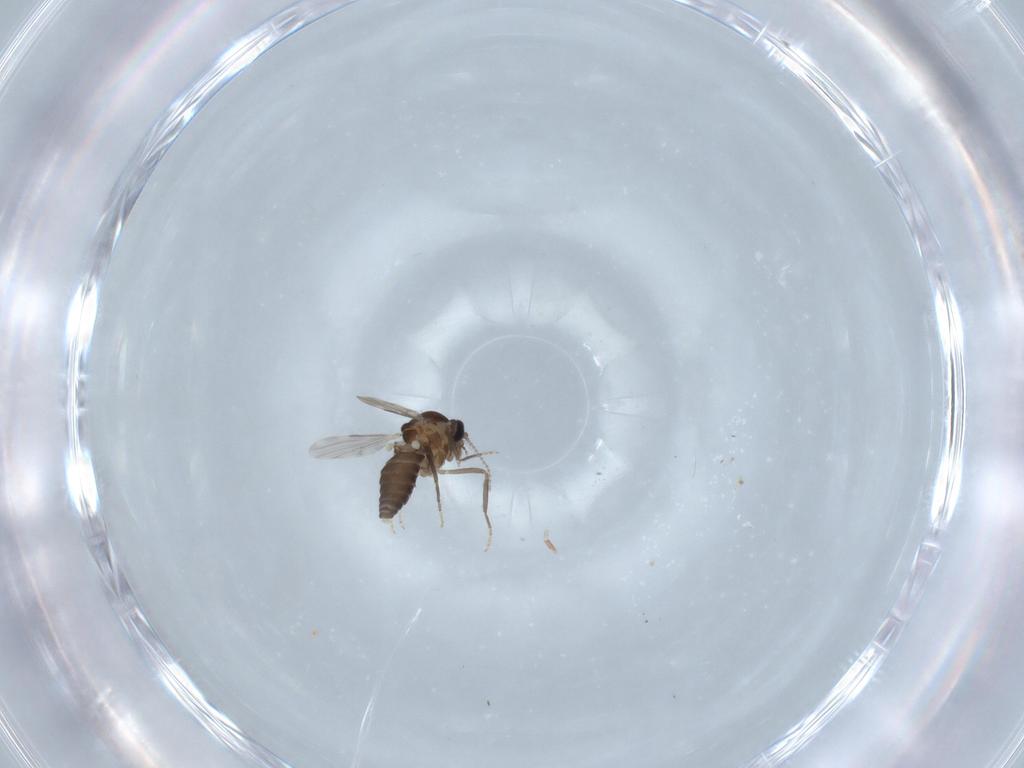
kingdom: Animalia
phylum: Arthropoda
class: Insecta
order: Diptera
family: Ceratopogonidae
